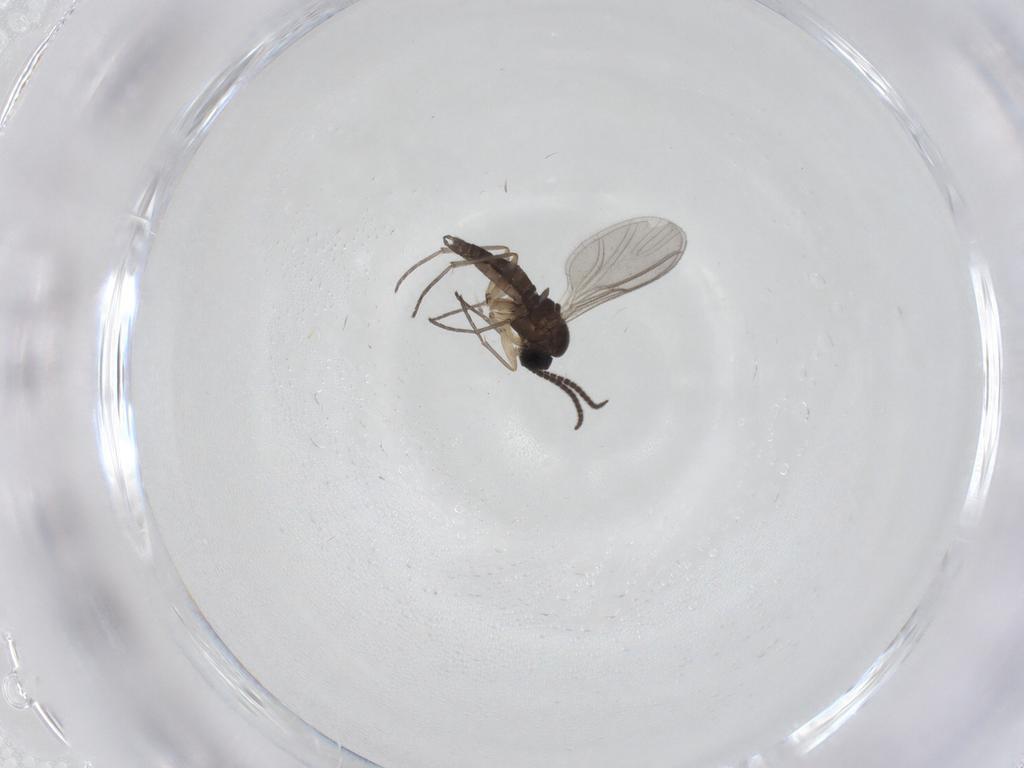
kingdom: Animalia
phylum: Arthropoda
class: Insecta
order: Diptera
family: Sciaridae
